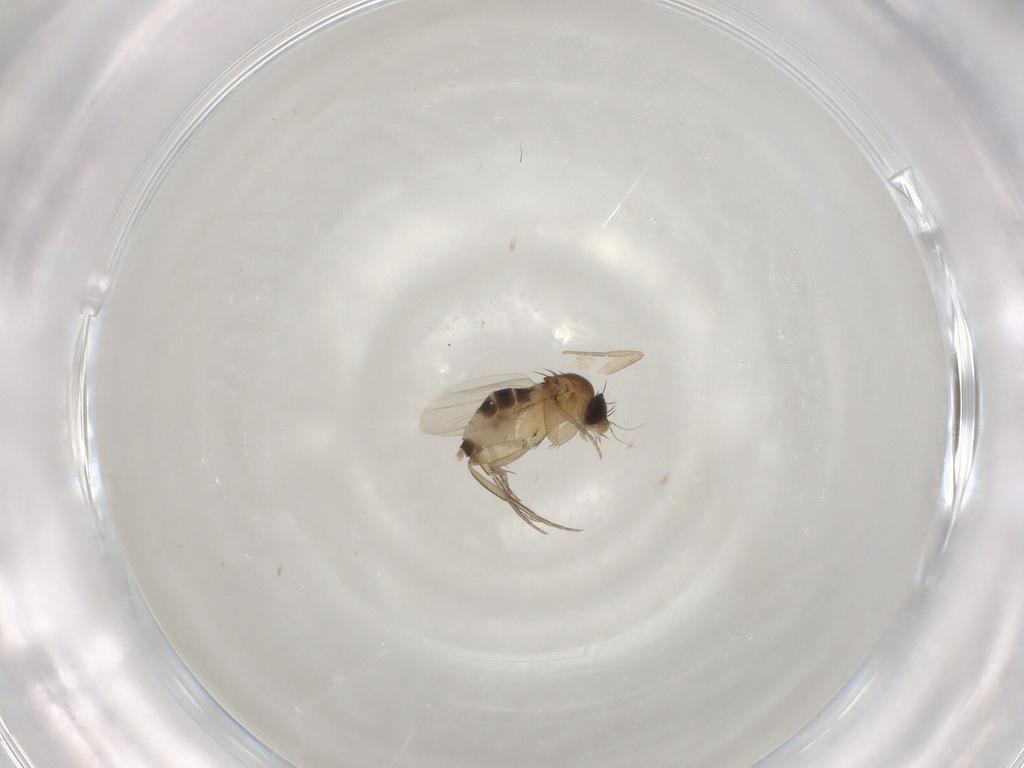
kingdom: Animalia
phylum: Arthropoda
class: Insecta
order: Diptera
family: Phoridae
